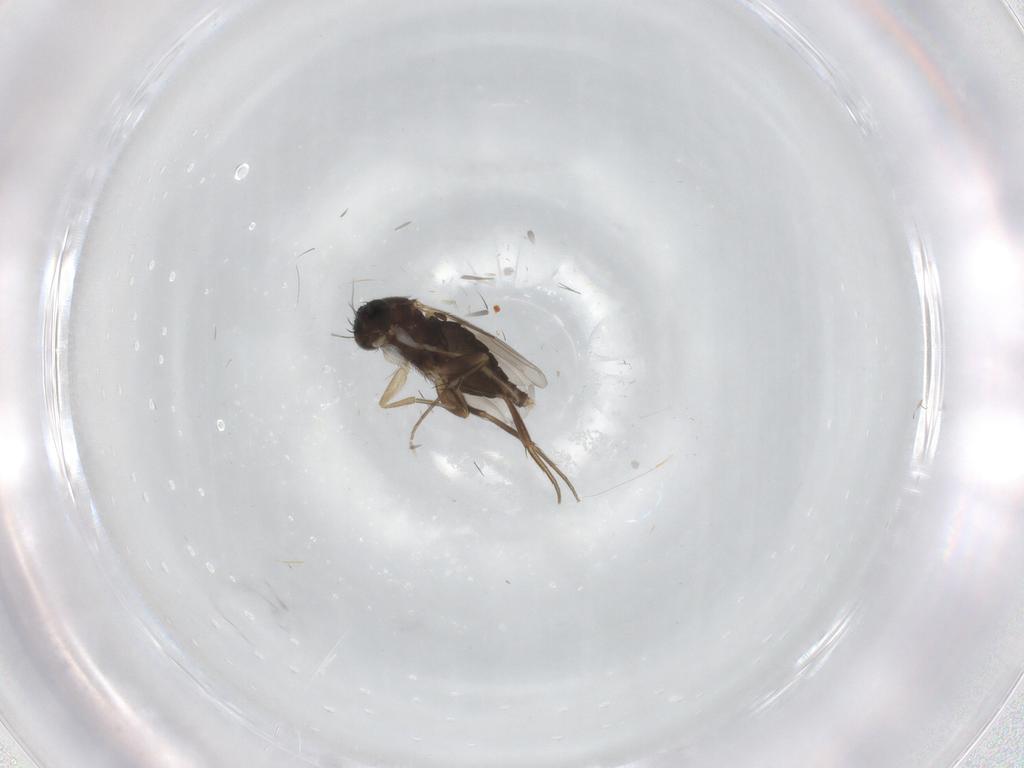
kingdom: Animalia
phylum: Arthropoda
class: Insecta
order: Diptera
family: Phoridae
